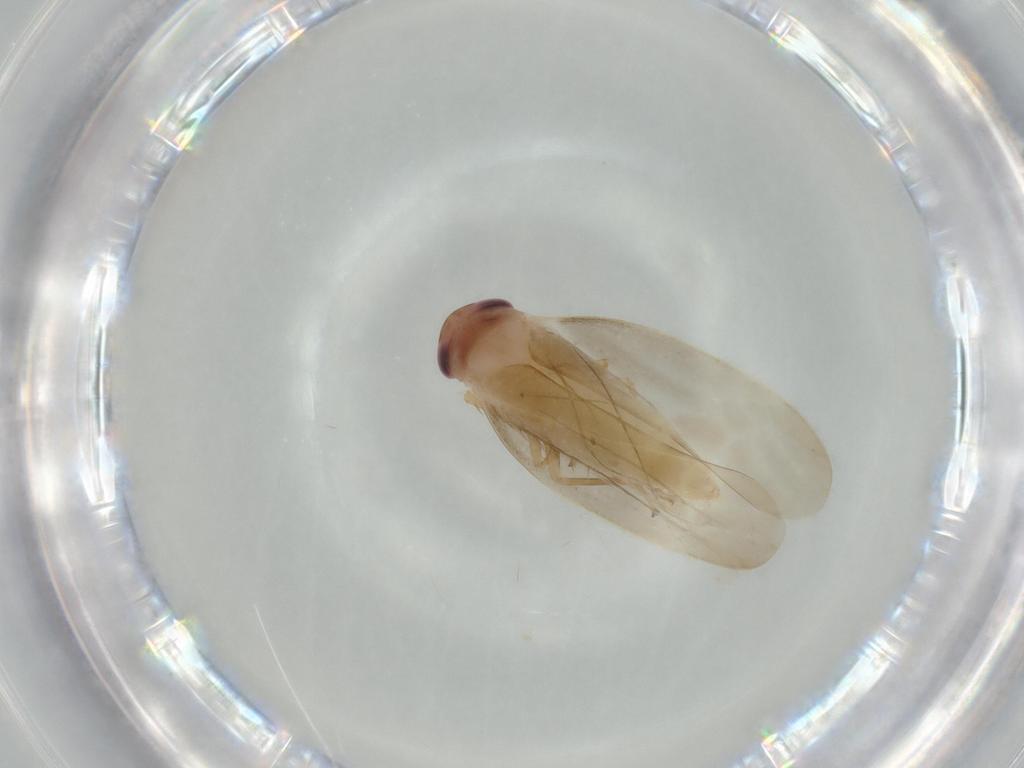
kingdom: Animalia
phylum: Arthropoda
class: Insecta
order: Hemiptera
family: Cicadellidae
